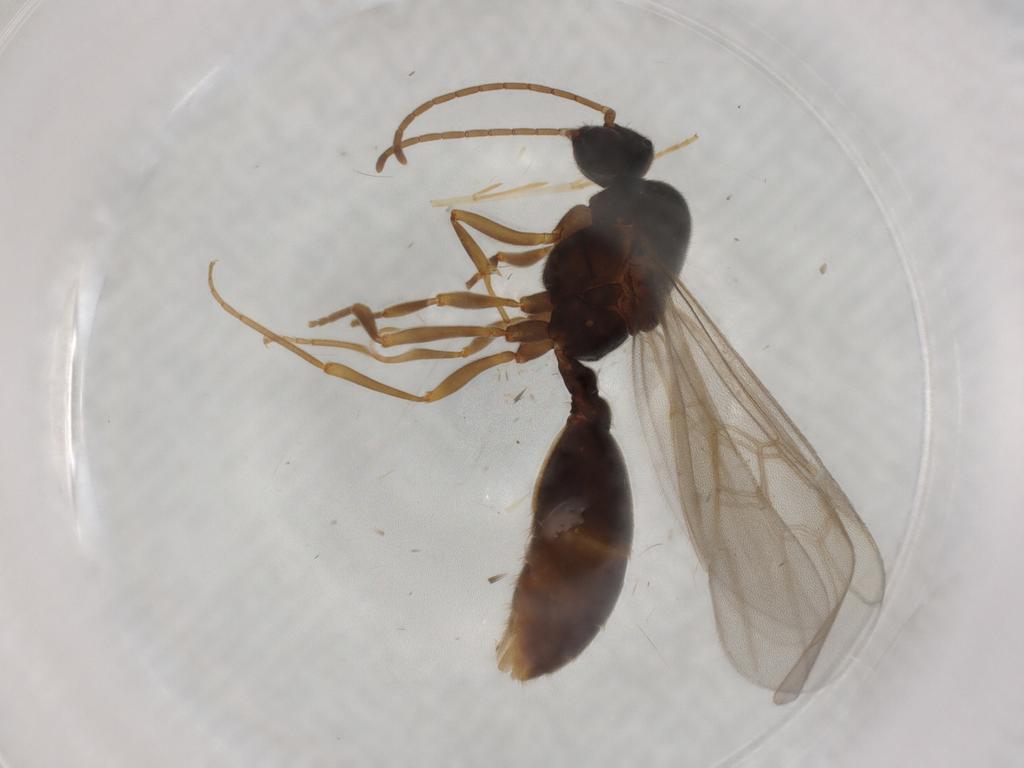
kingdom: Animalia
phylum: Arthropoda
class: Insecta
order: Hymenoptera
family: Formicidae
